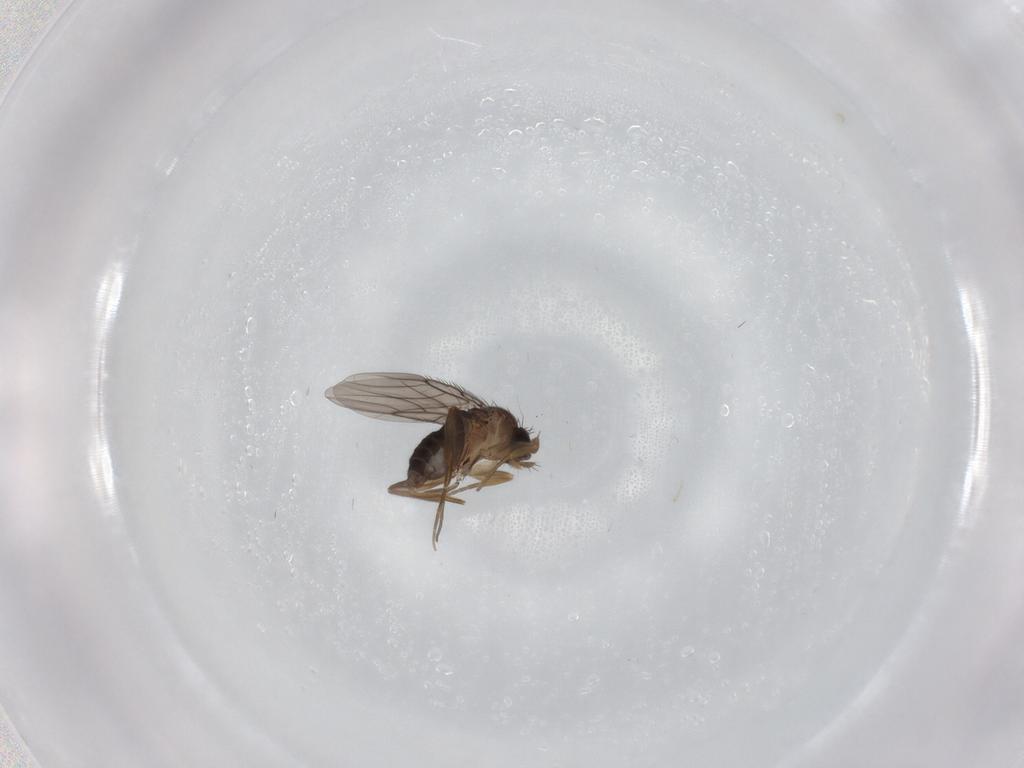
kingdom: Animalia
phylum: Arthropoda
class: Insecta
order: Diptera
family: Phoridae
